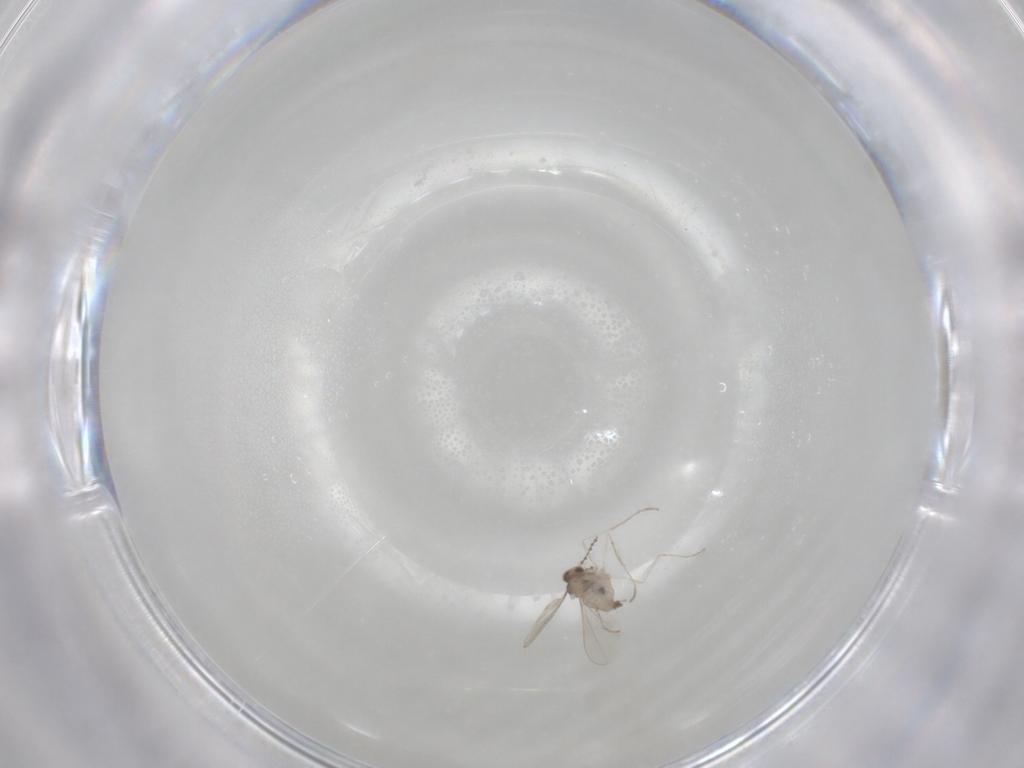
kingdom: Animalia
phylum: Arthropoda
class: Insecta
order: Diptera
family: Cecidomyiidae
